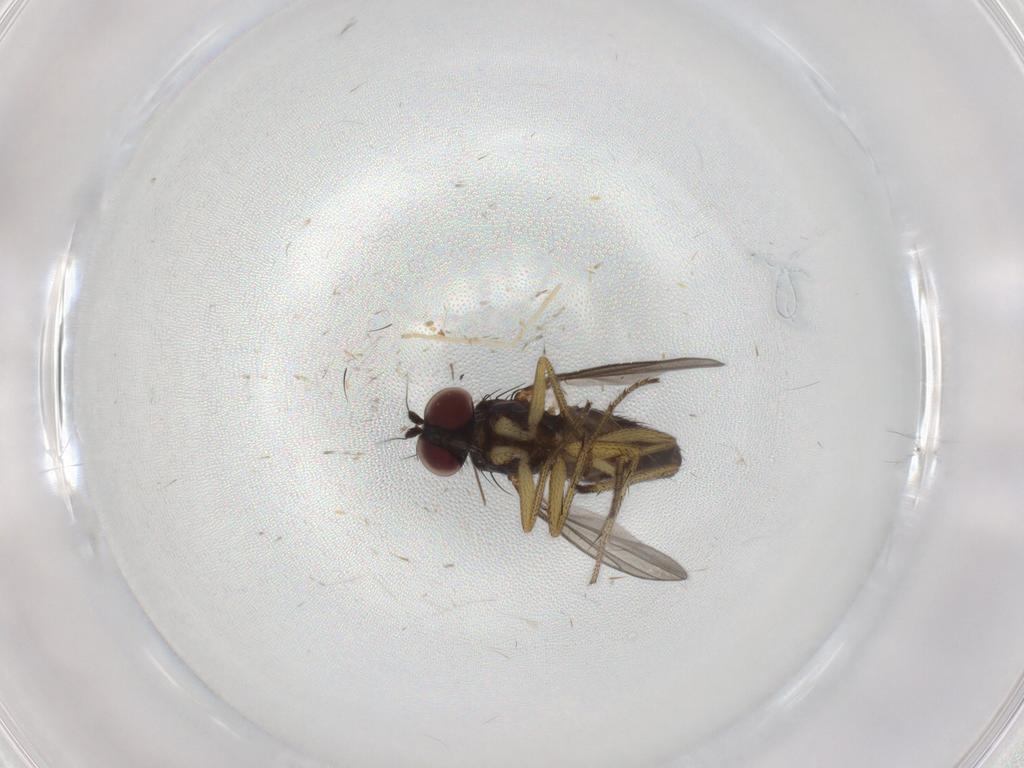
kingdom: Animalia
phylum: Arthropoda
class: Insecta
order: Diptera
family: Dolichopodidae
